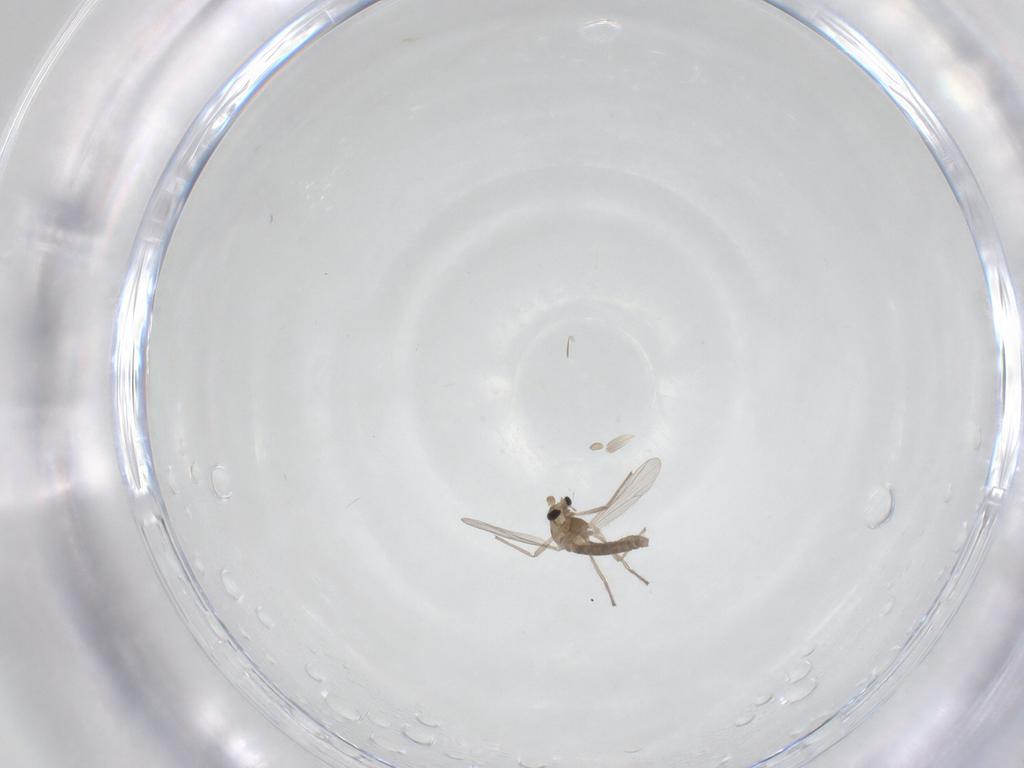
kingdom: Animalia
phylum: Arthropoda
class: Insecta
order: Diptera
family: Chironomidae
